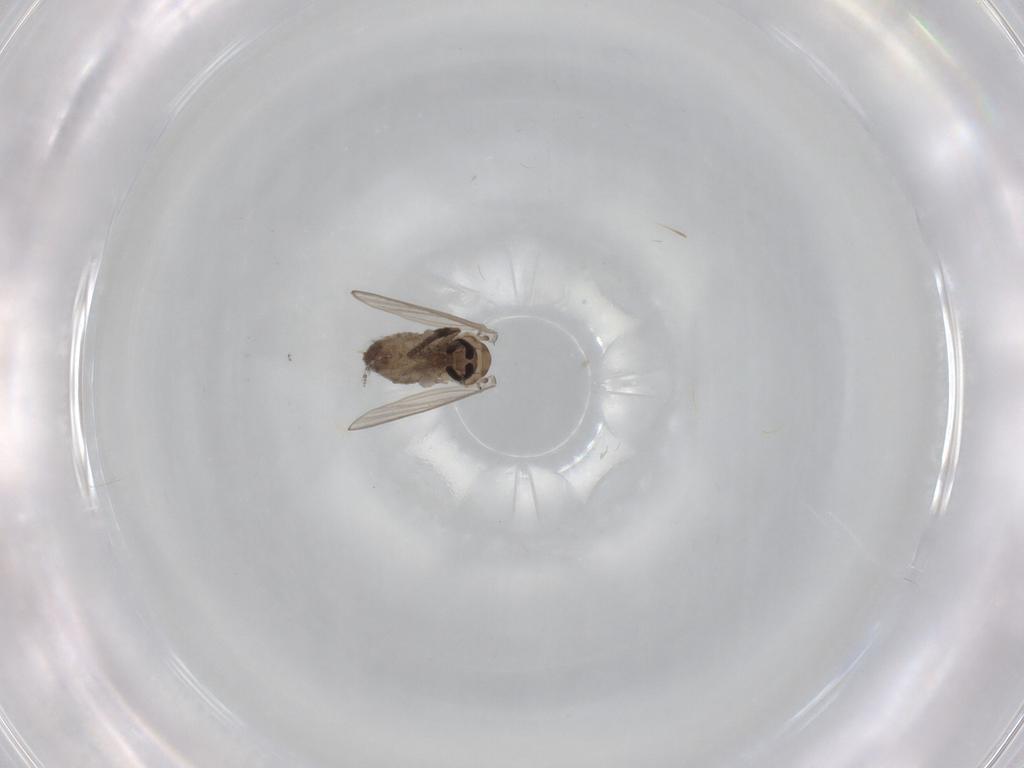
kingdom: Animalia
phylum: Arthropoda
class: Insecta
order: Diptera
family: Psychodidae
